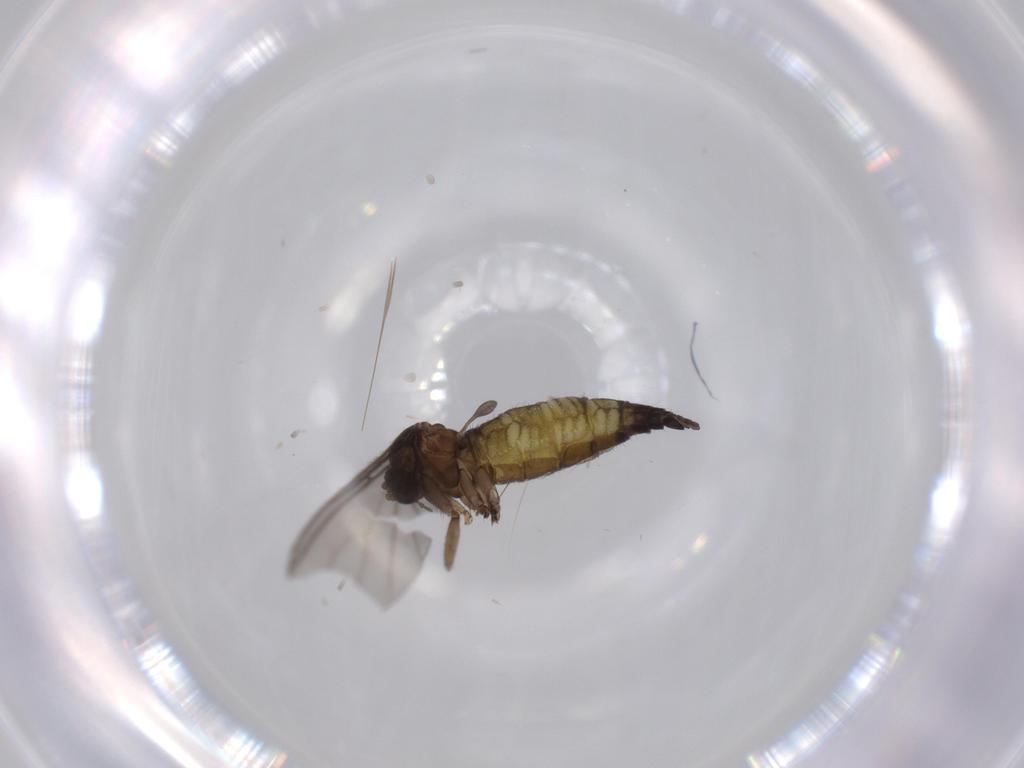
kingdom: Animalia
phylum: Arthropoda
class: Insecta
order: Diptera
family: Sciaridae
